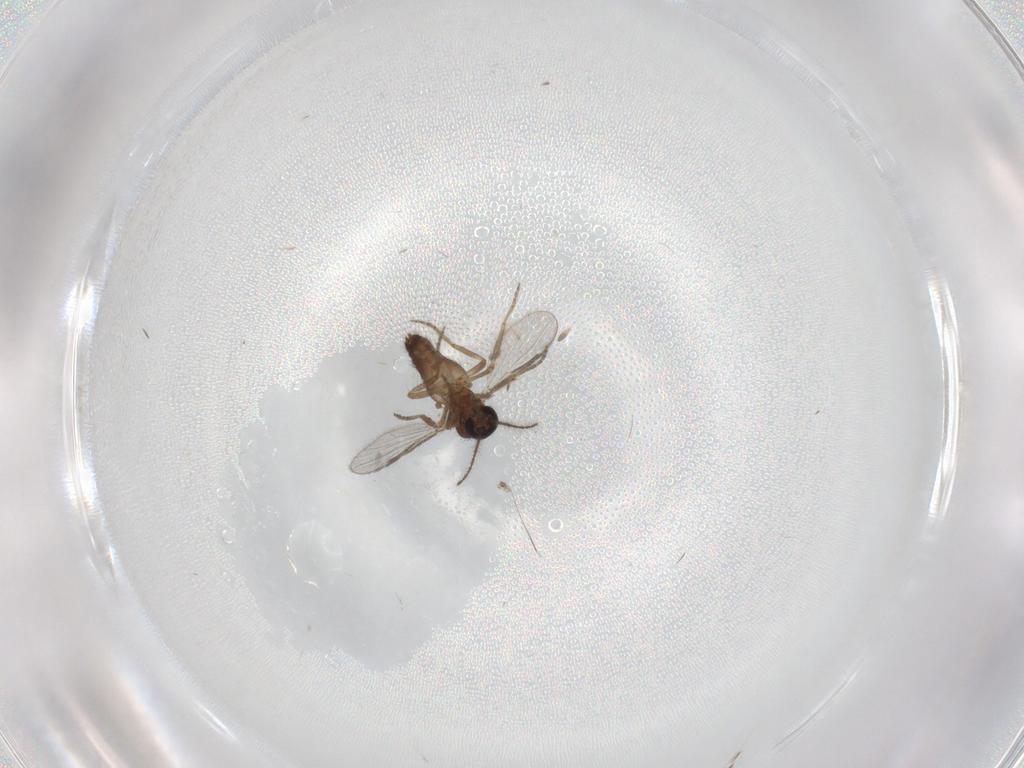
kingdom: Animalia
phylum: Arthropoda
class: Insecta
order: Diptera
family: Ceratopogonidae
